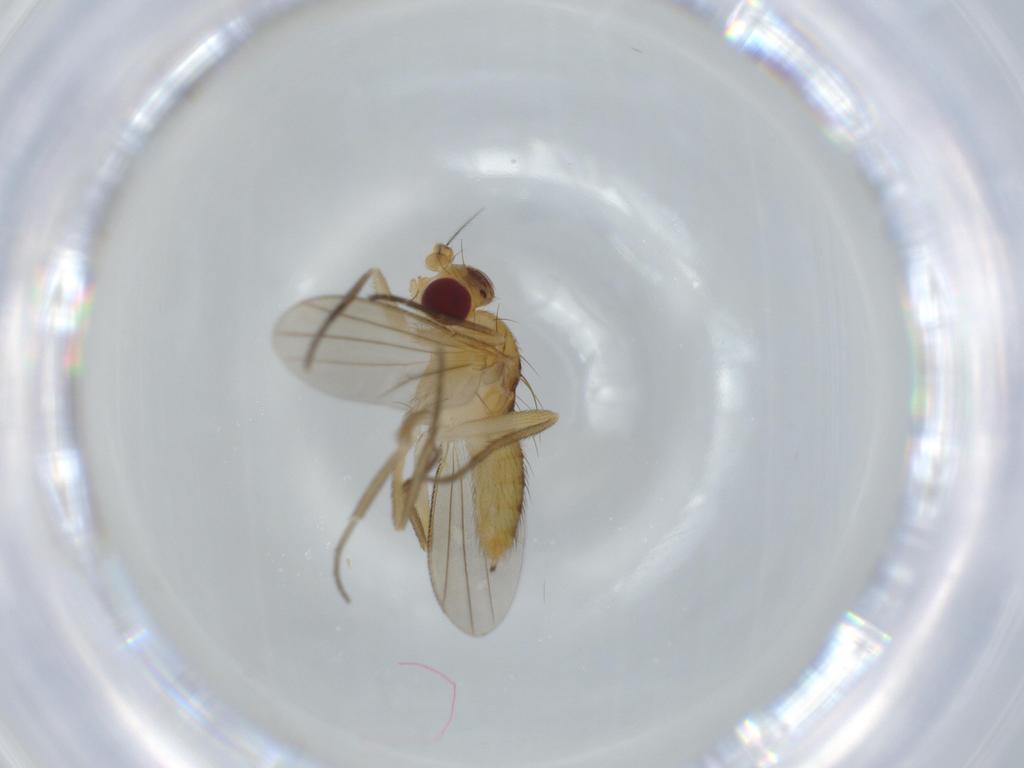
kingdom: Animalia
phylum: Arthropoda
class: Insecta
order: Diptera
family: Clusiidae
